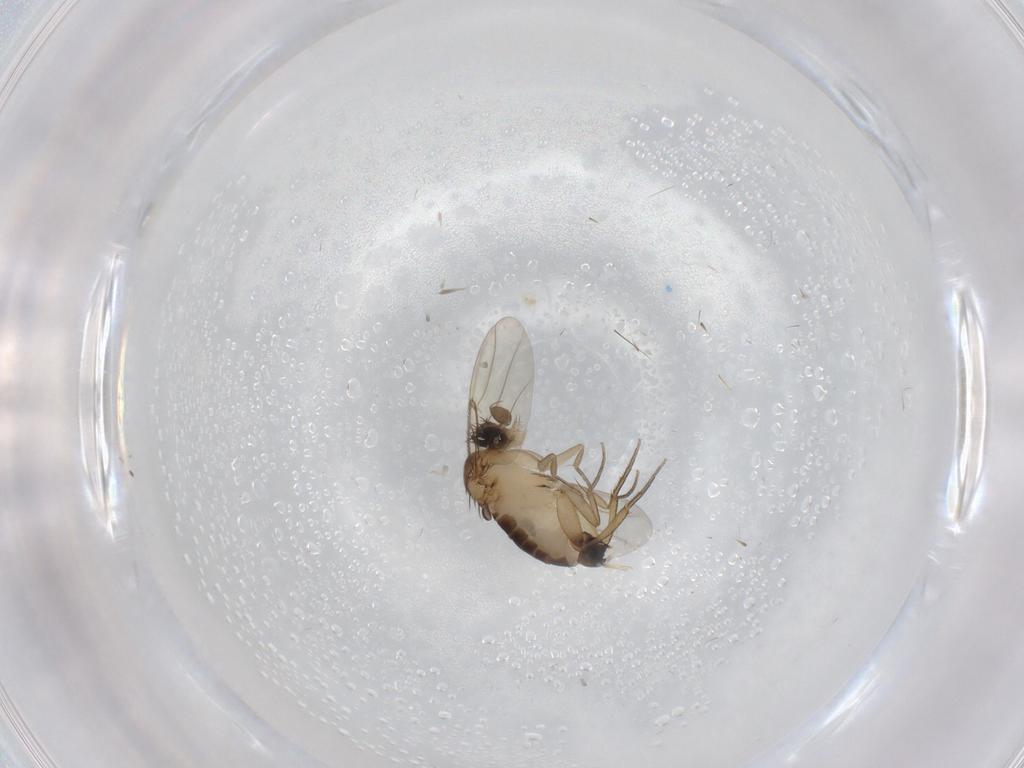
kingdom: Animalia
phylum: Arthropoda
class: Insecta
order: Diptera
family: Phoridae
